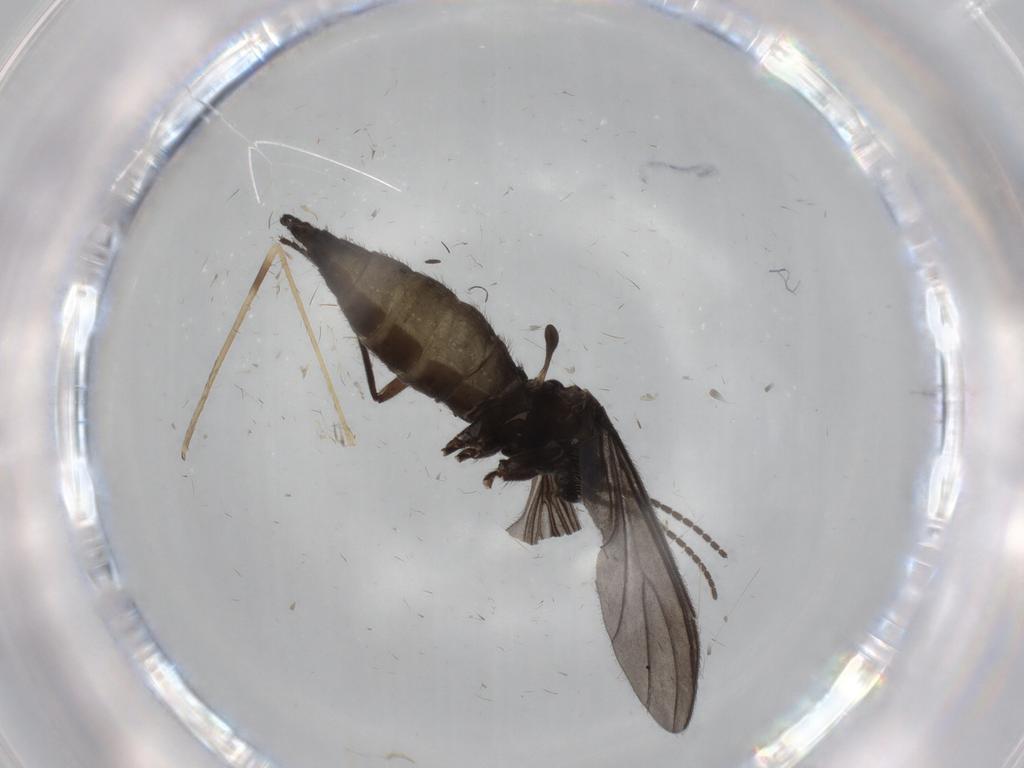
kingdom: Animalia
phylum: Arthropoda
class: Insecta
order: Diptera
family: Sciaridae
